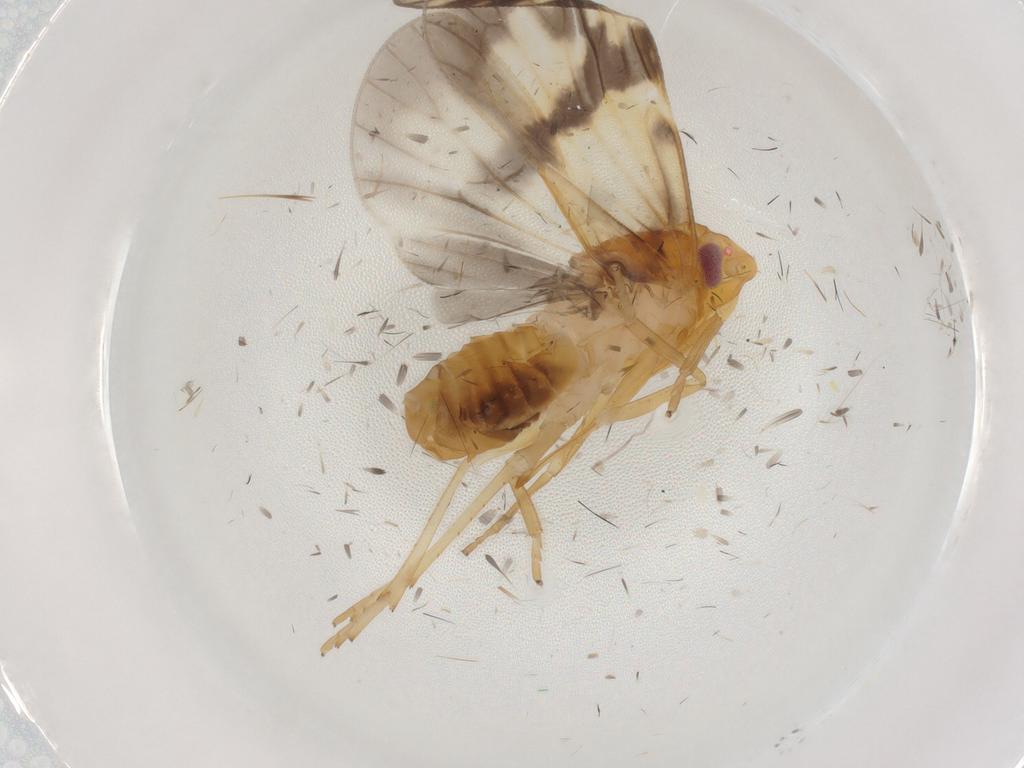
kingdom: Animalia
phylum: Arthropoda
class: Insecta
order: Hemiptera
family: Cixiidae
